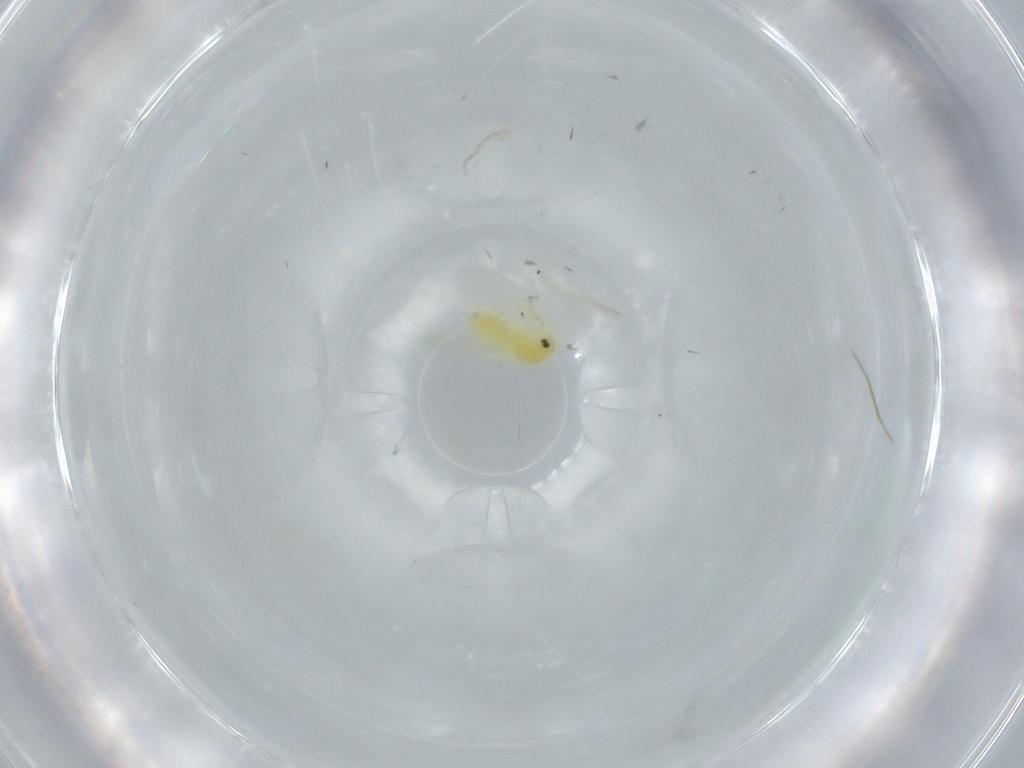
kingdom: Animalia
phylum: Arthropoda
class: Insecta
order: Hemiptera
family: Aleyrodidae
